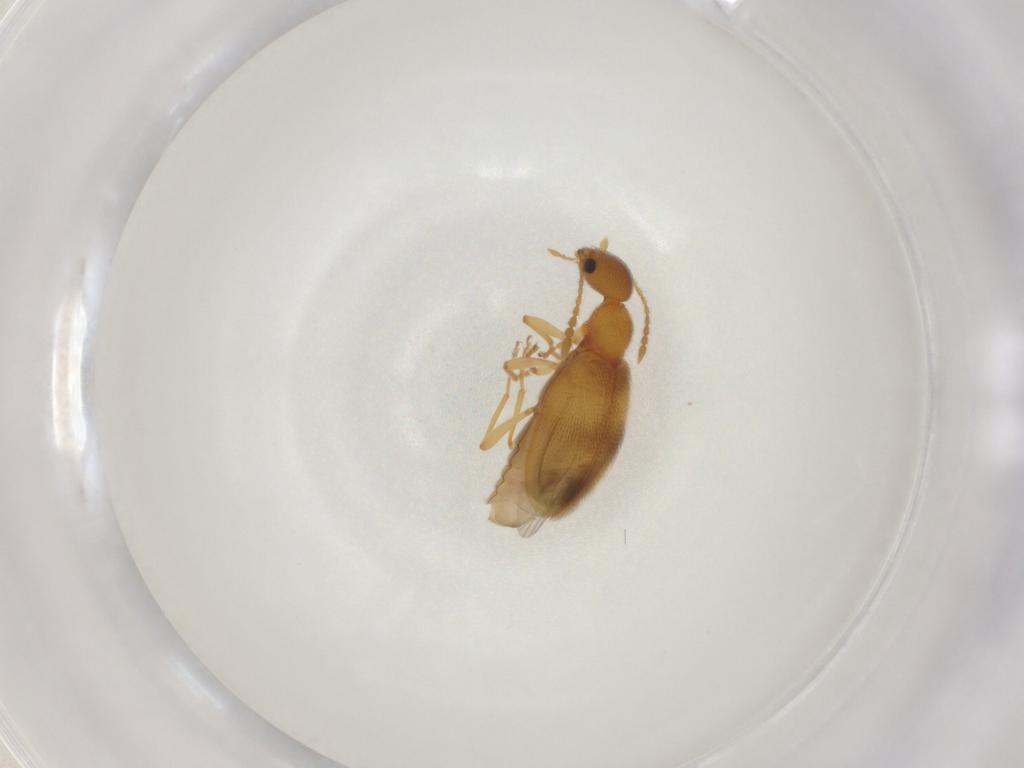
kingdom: Animalia
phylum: Arthropoda
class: Insecta
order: Coleoptera
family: Anthicidae
